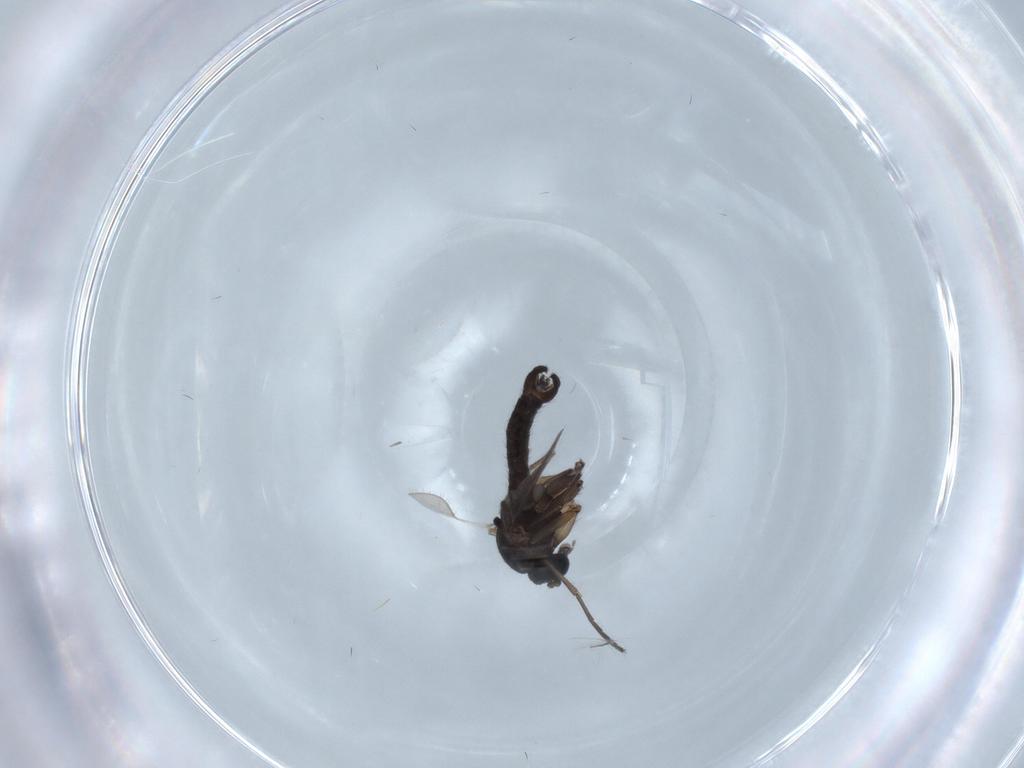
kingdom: Animalia
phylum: Arthropoda
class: Insecta
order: Diptera
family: Sciaridae
